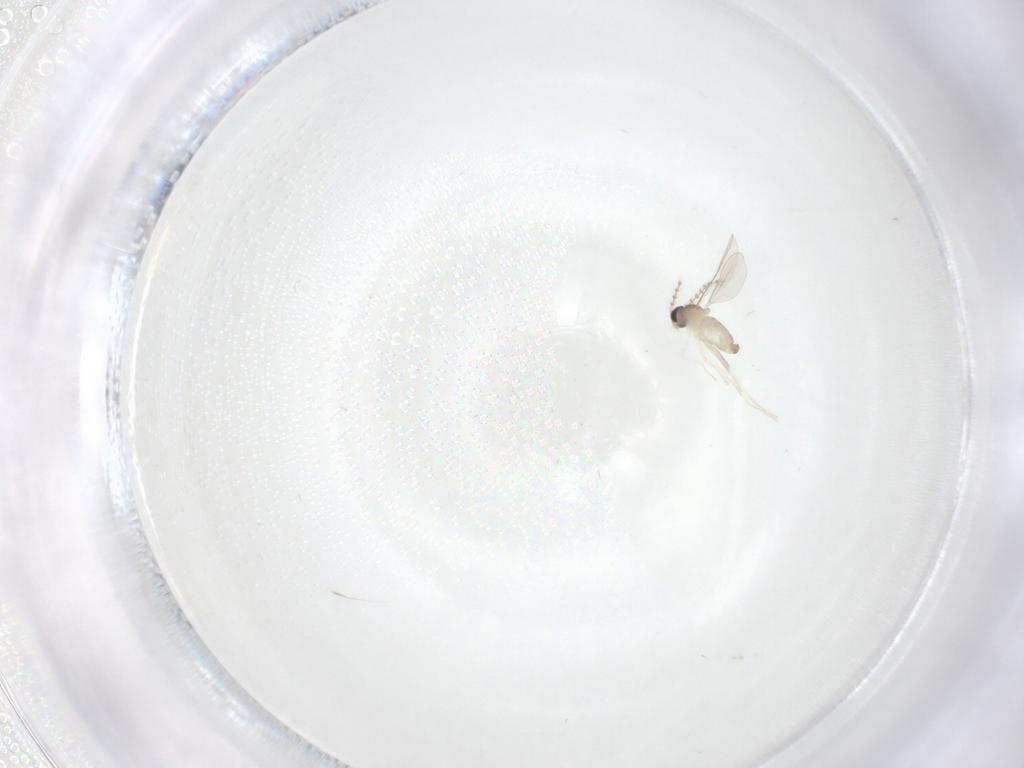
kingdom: Animalia
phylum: Arthropoda
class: Insecta
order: Diptera
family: Cecidomyiidae
